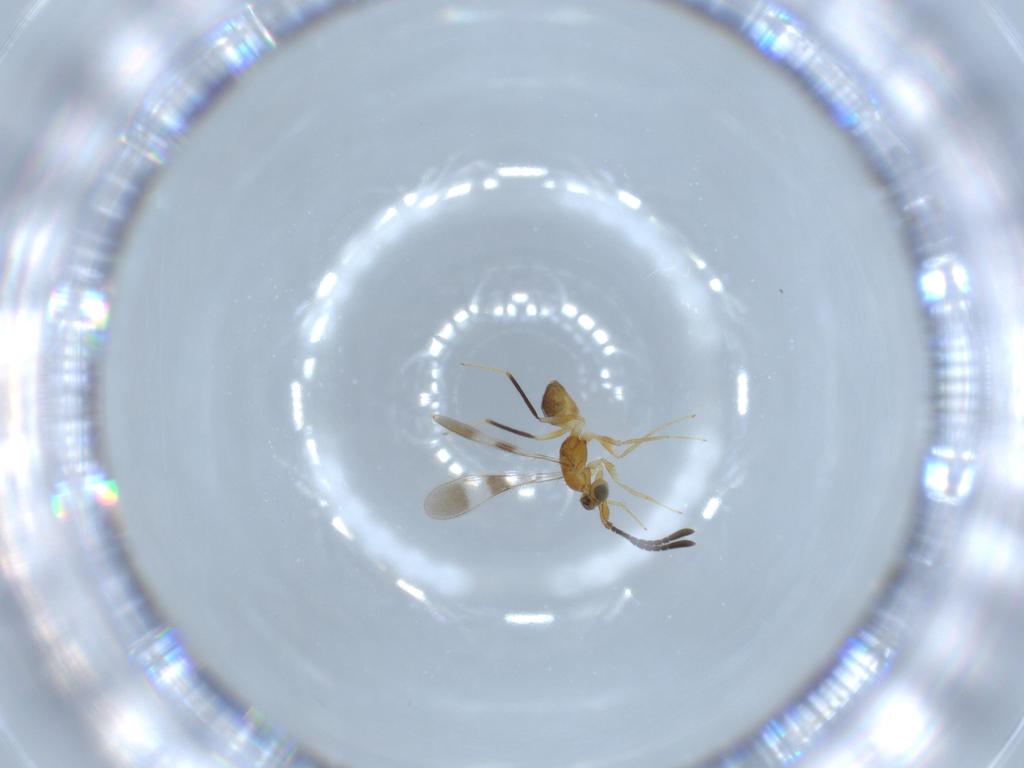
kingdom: Animalia
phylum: Arthropoda
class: Insecta
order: Hymenoptera
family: Mymaridae
